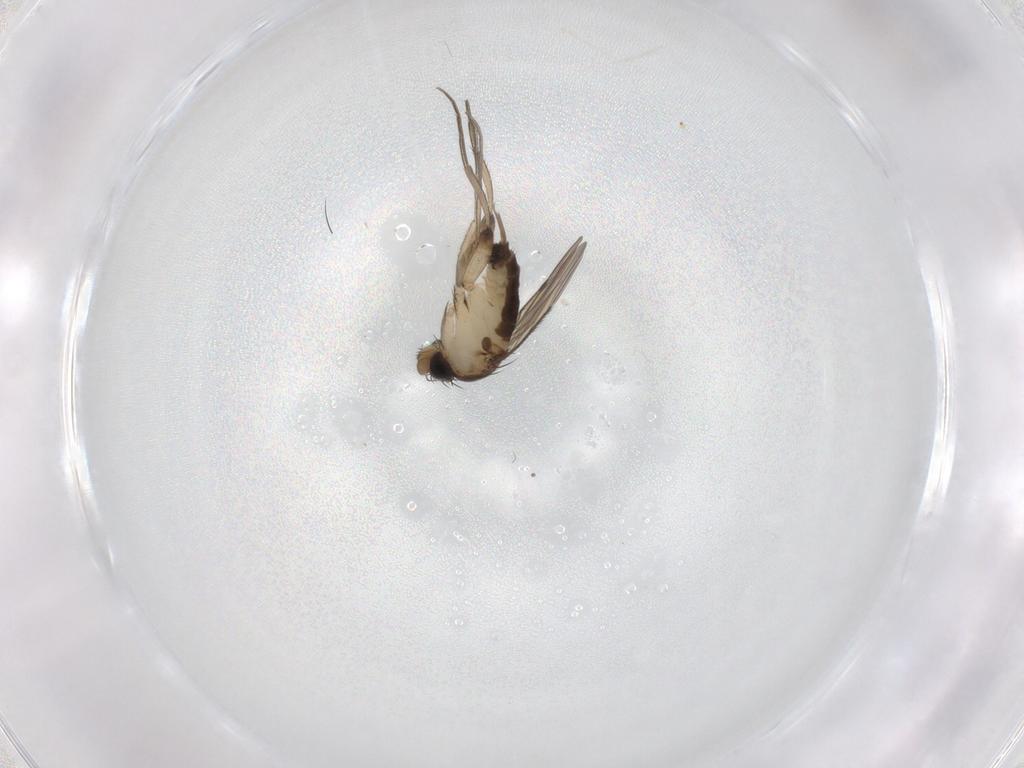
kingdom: Animalia
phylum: Arthropoda
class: Insecta
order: Diptera
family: Phoridae
